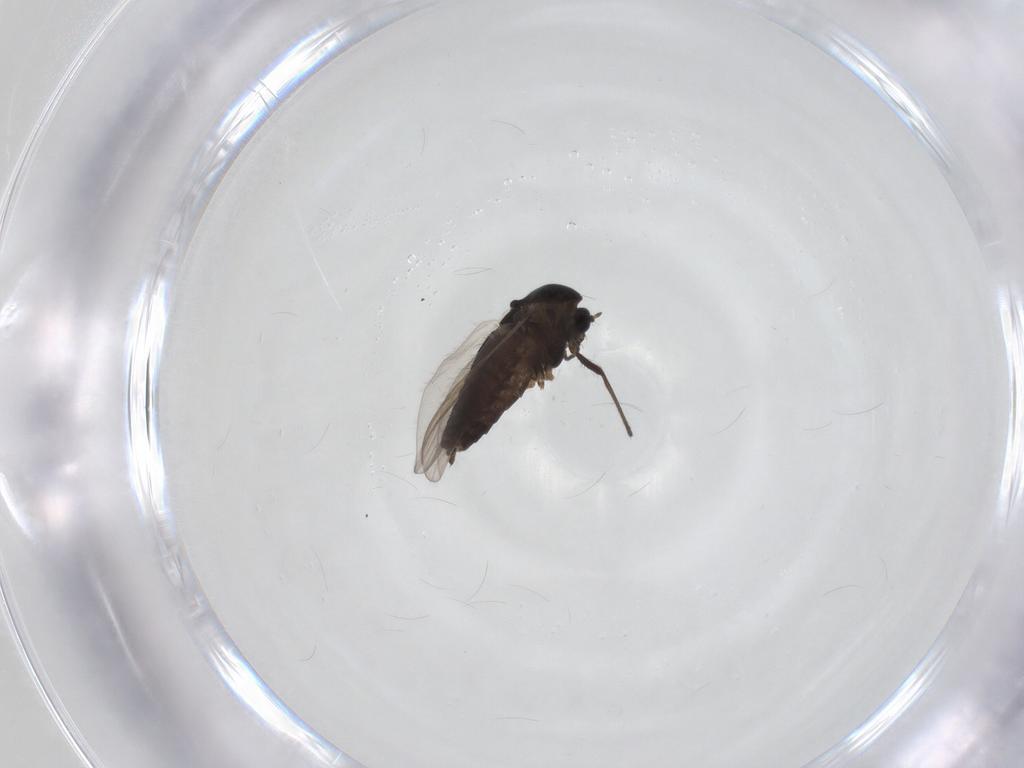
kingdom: Animalia
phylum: Arthropoda
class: Insecta
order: Diptera
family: Chironomidae
